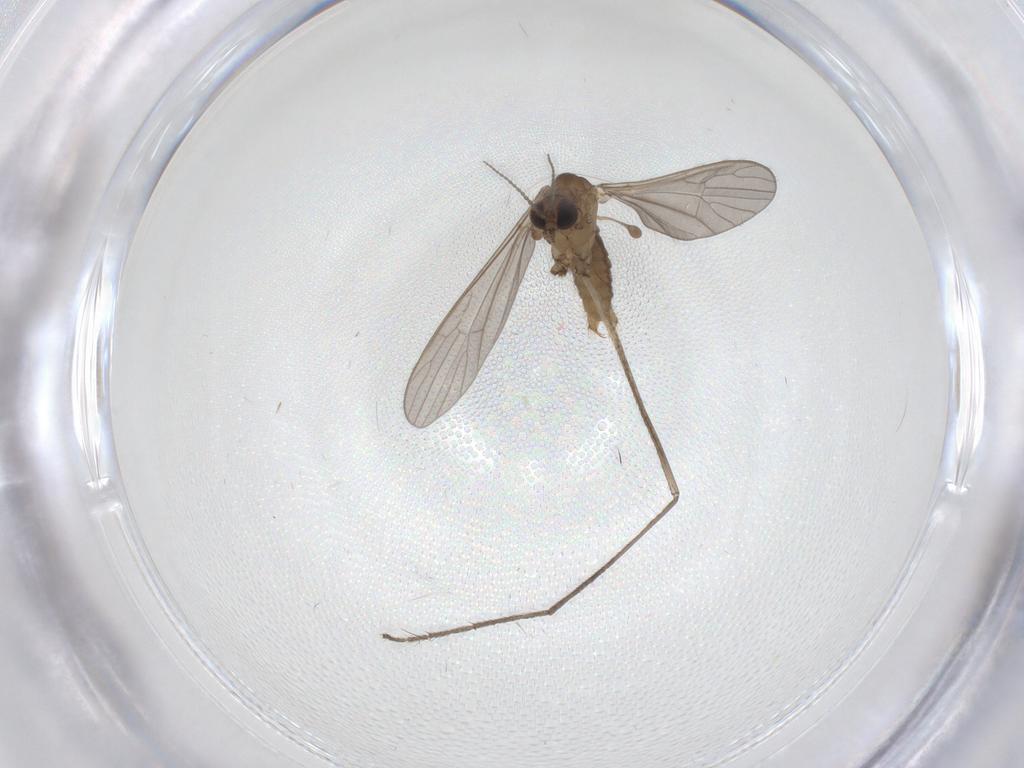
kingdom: Animalia
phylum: Arthropoda
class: Insecta
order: Diptera
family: Limoniidae
